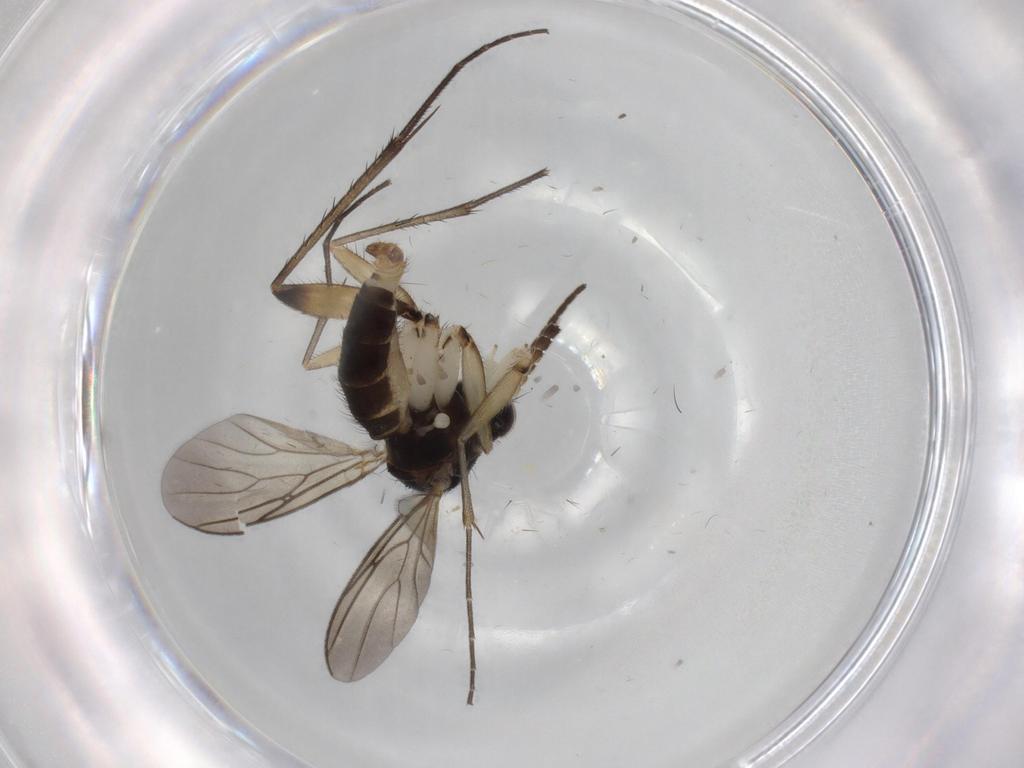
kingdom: Animalia
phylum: Arthropoda
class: Insecta
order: Diptera
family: Mycetophilidae
